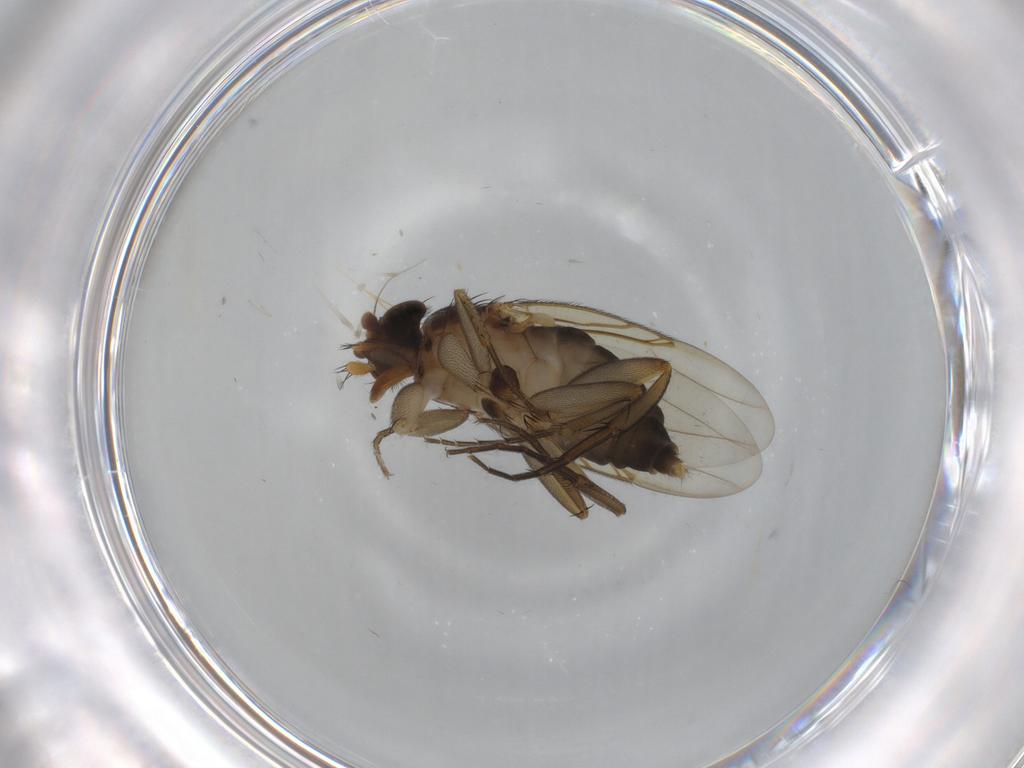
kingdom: Animalia
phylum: Arthropoda
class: Insecta
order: Diptera
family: Phoridae
